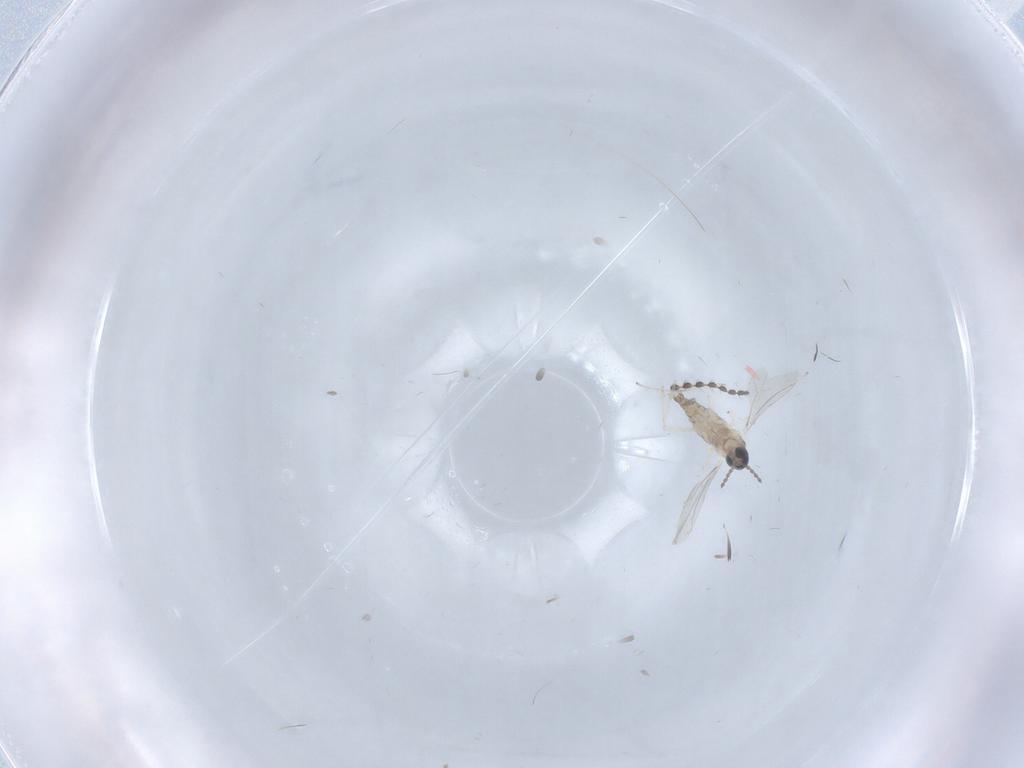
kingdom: Animalia
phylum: Arthropoda
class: Insecta
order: Diptera
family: Cecidomyiidae
